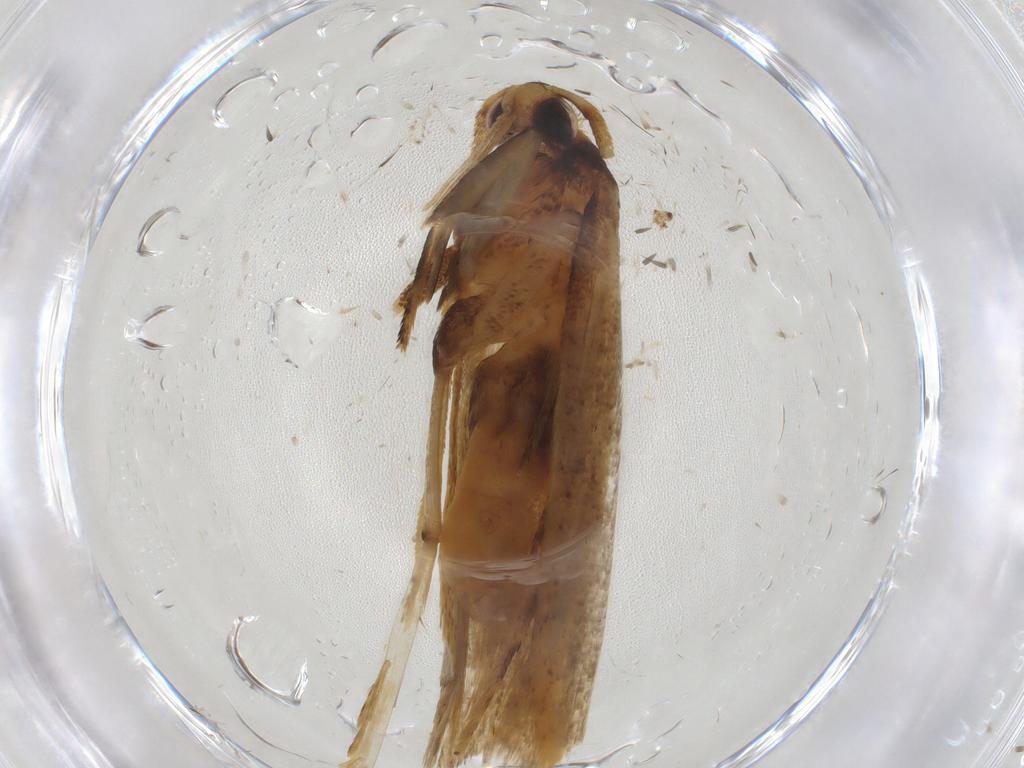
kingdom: Animalia
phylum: Arthropoda
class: Insecta
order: Lepidoptera
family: Lecithoceridae
